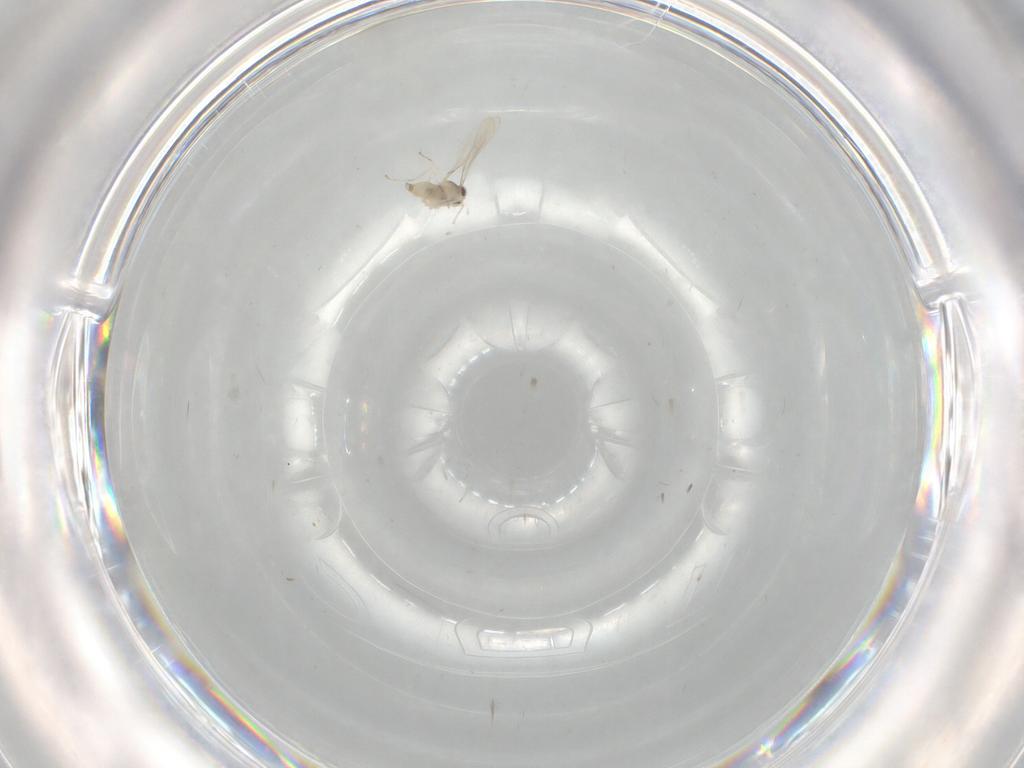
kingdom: Animalia
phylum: Arthropoda
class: Insecta
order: Diptera
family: Cecidomyiidae
